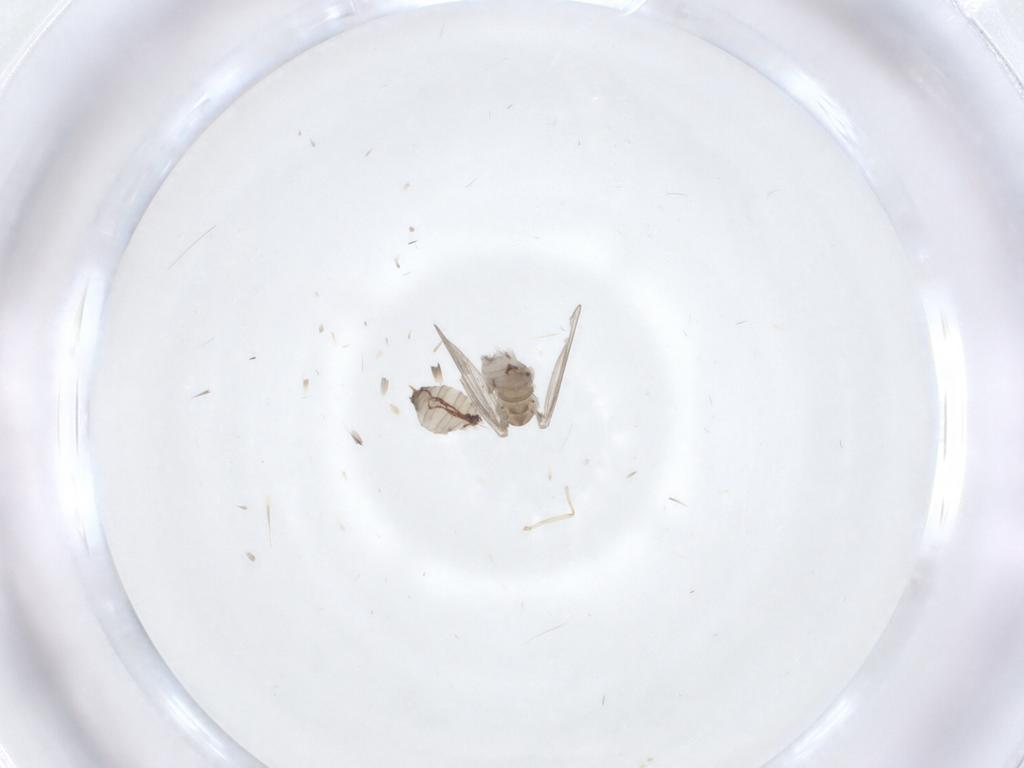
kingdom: Animalia
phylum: Arthropoda
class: Insecta
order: Diptera
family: Psychodidae
